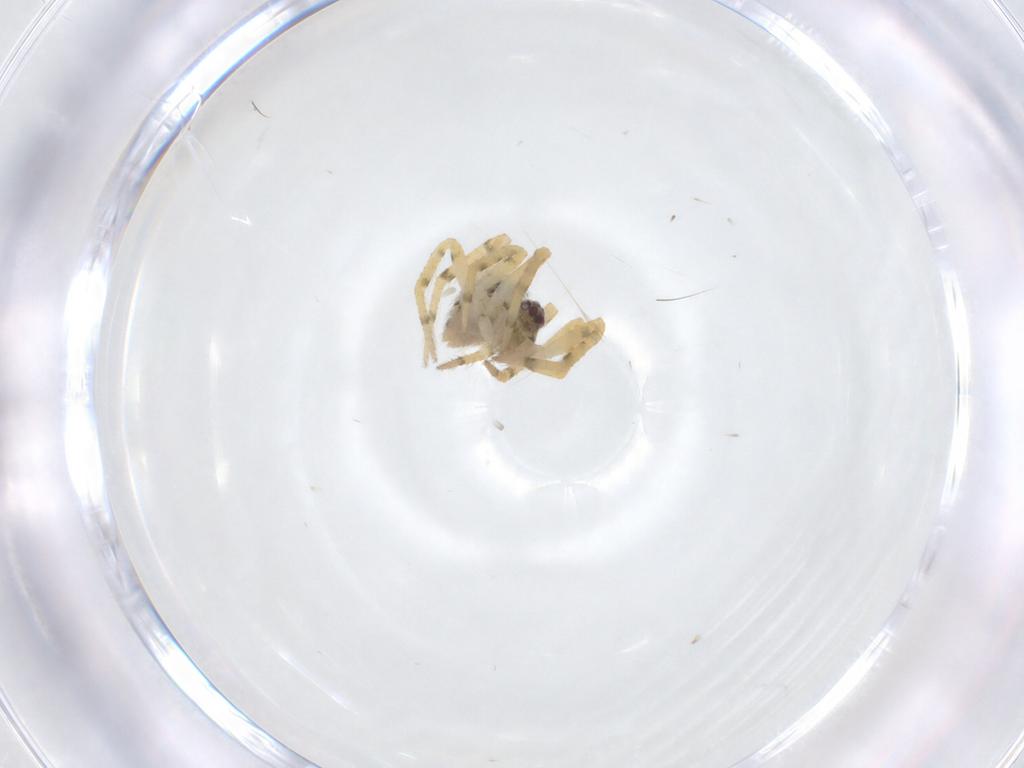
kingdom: Animalia
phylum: Arthropoda
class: Arachnida
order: Araneae
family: Theridiidae
